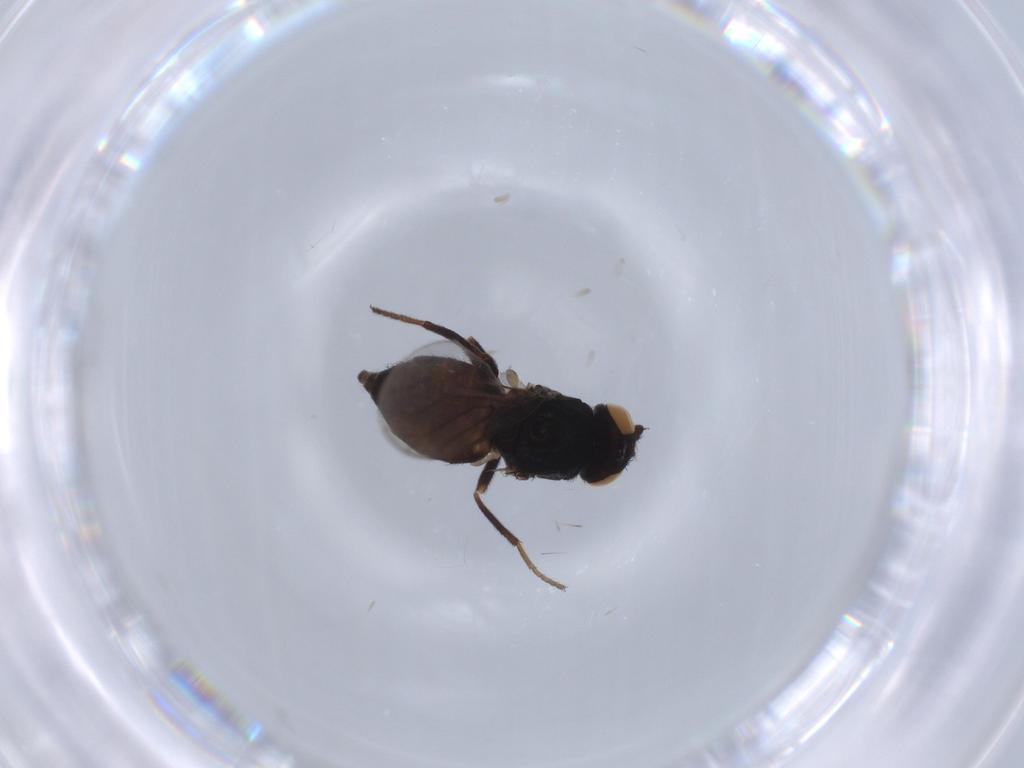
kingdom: Animalia
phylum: Arthropoda
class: Insecta
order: Diptera
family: Chloropidae
